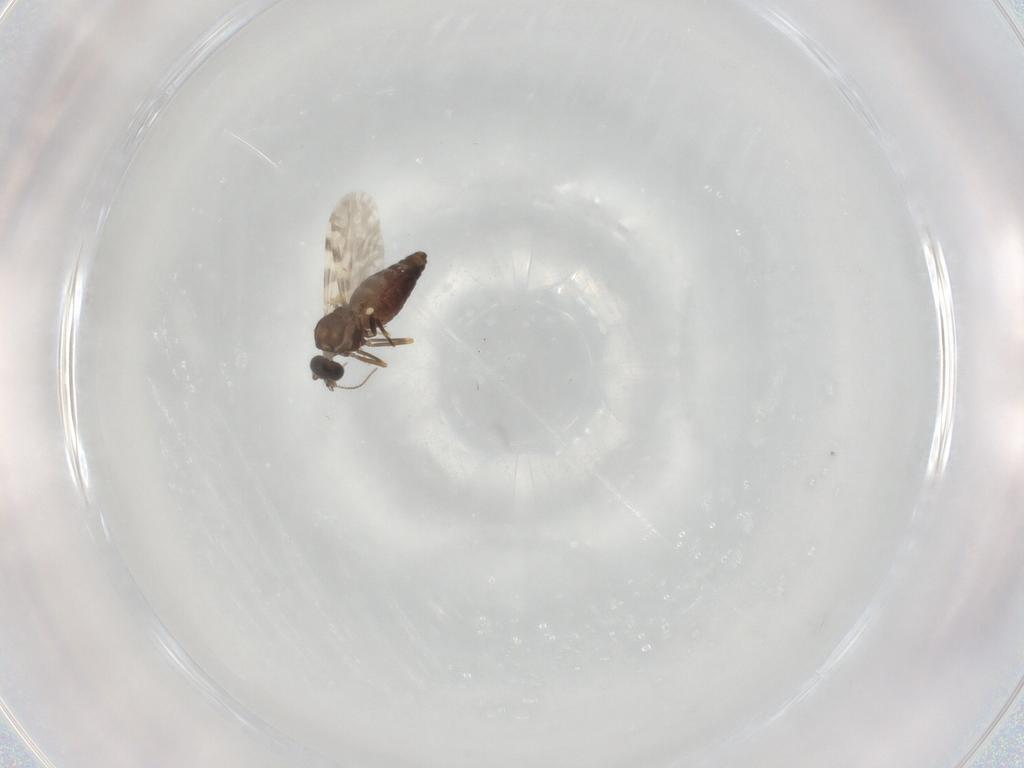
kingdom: Animalia
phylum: Arthropoda
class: Insecta
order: Diptera
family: Ceratopogonidae
